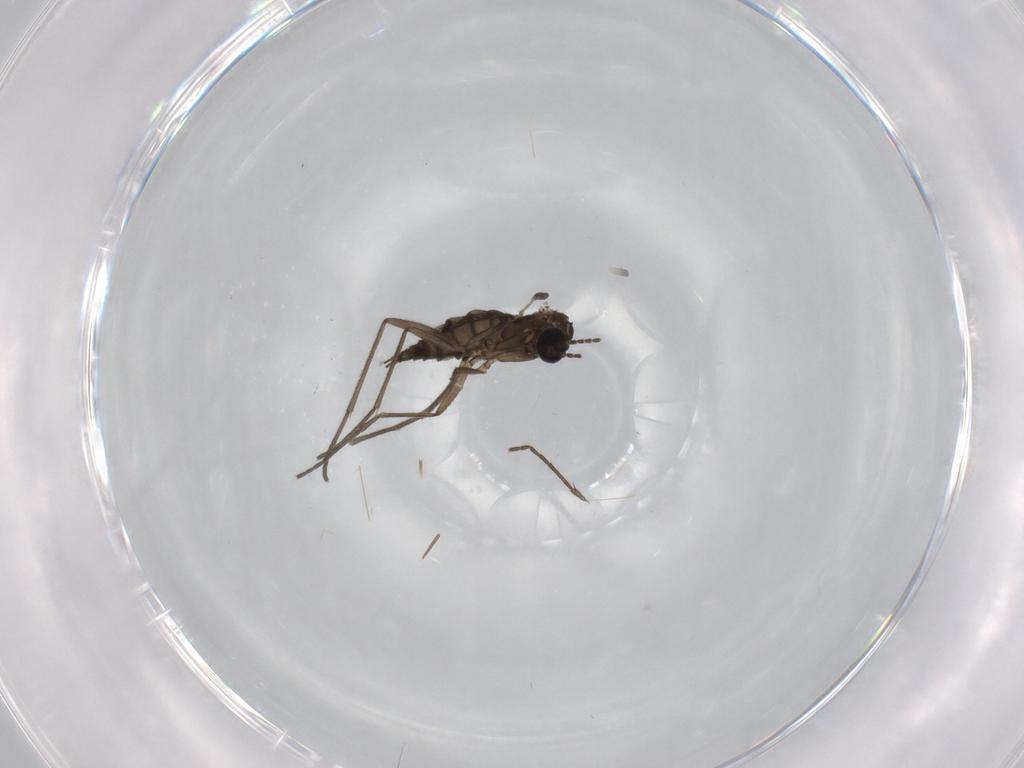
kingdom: Animalia
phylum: Arthropoda
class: Insecta
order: Diptera
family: Sciaridae
